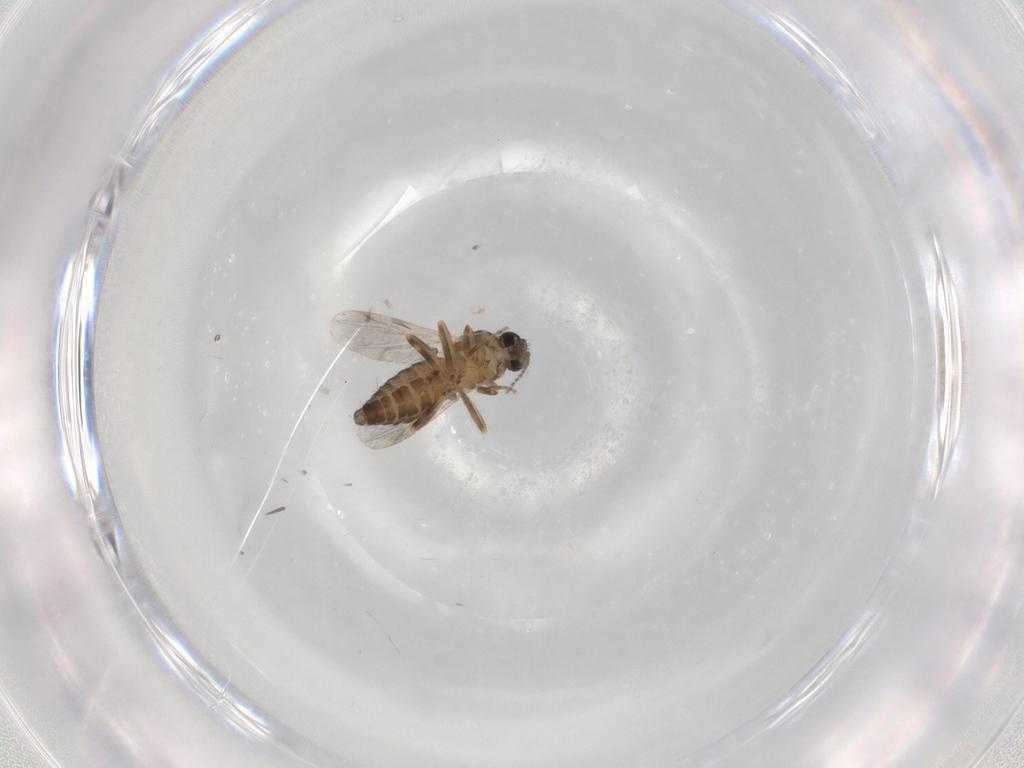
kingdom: Animalia
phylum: Arthropoda
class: Insecta
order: Diptera
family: Ceratopogonidae
